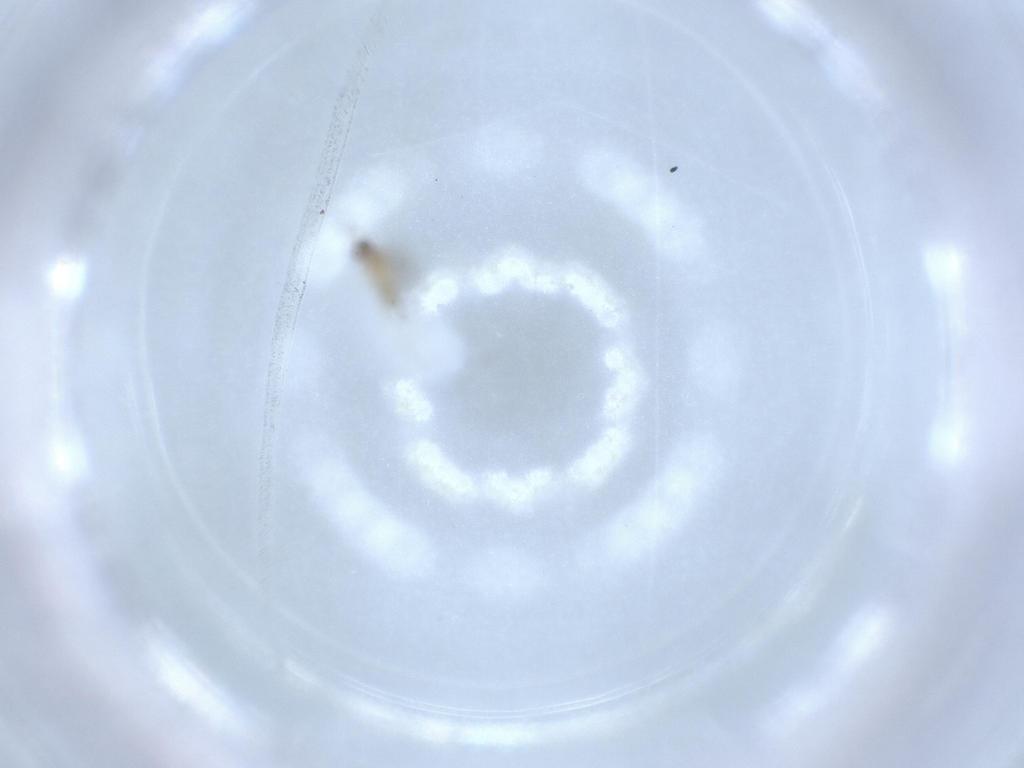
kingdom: Animalia
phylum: Arthropoda
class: Insecta
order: Diptera
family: Cecidomyiidae
